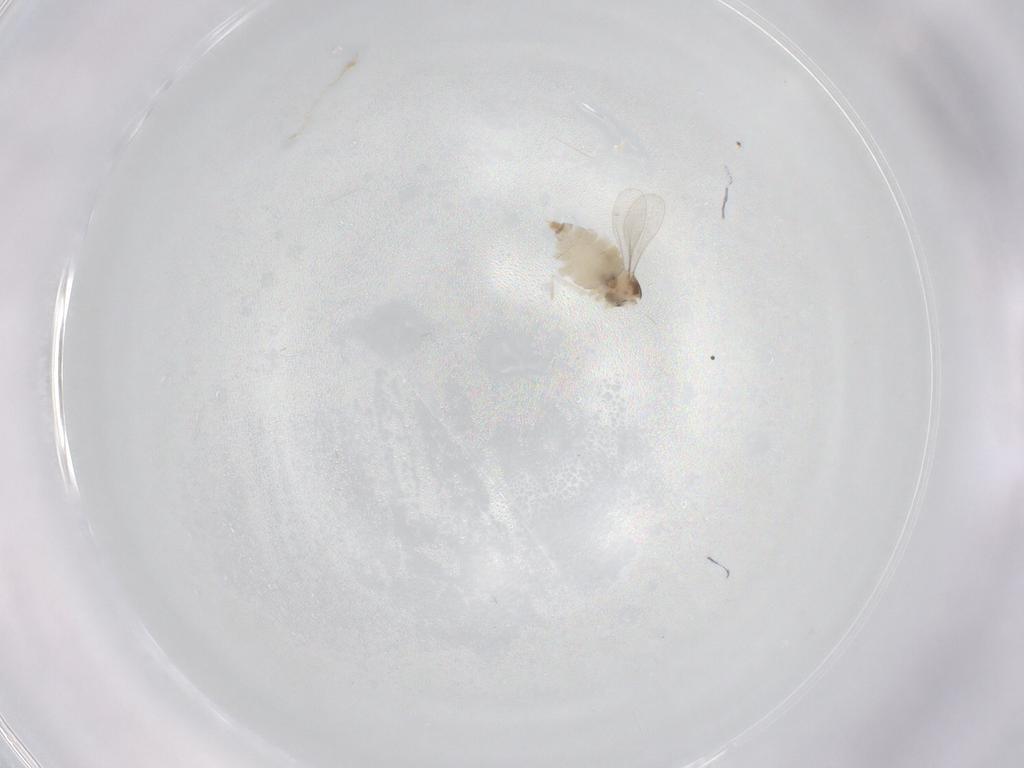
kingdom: Animalia
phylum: Arthropoda
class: Insecta
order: Diptera
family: Phoridae
